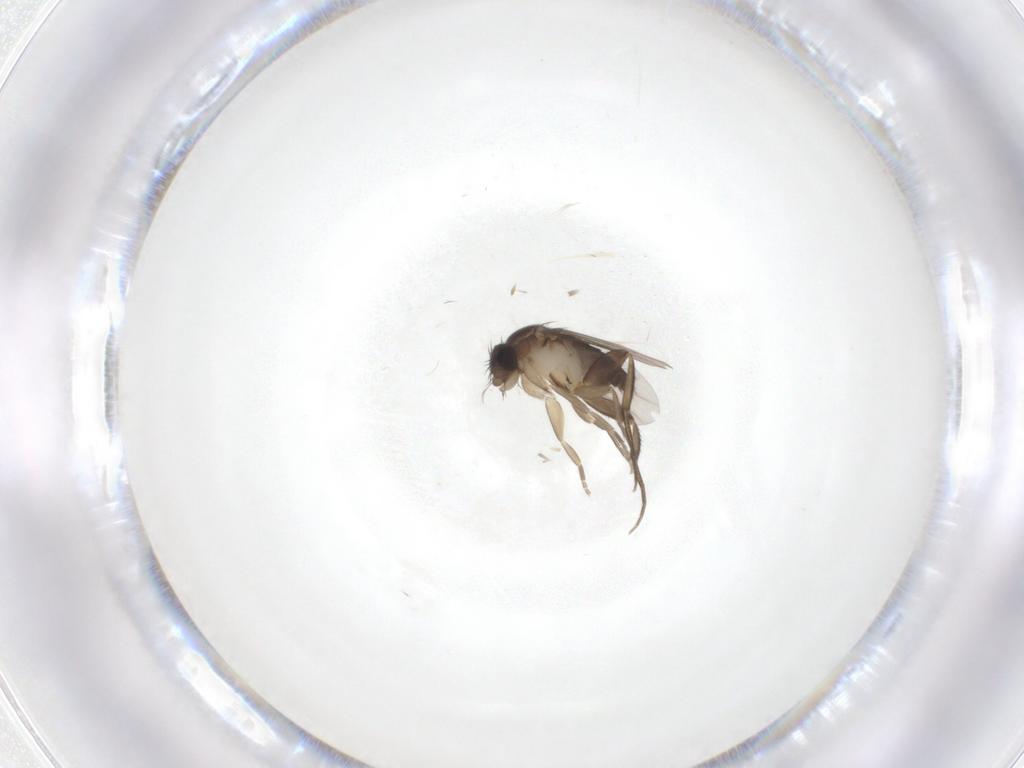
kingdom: Animalia
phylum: Arthropoda
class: Insecta
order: Diptera
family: Phoridae
